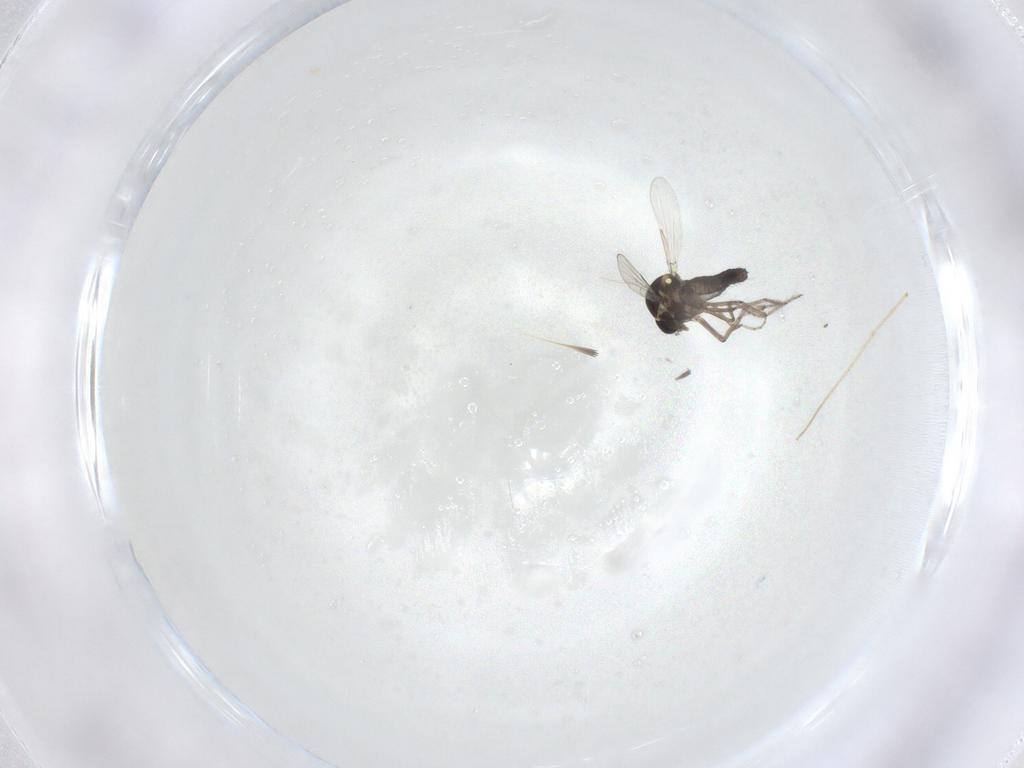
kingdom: Animalia
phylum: Arthropoda
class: Insecta
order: Diptera
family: Ceratopogonidae
